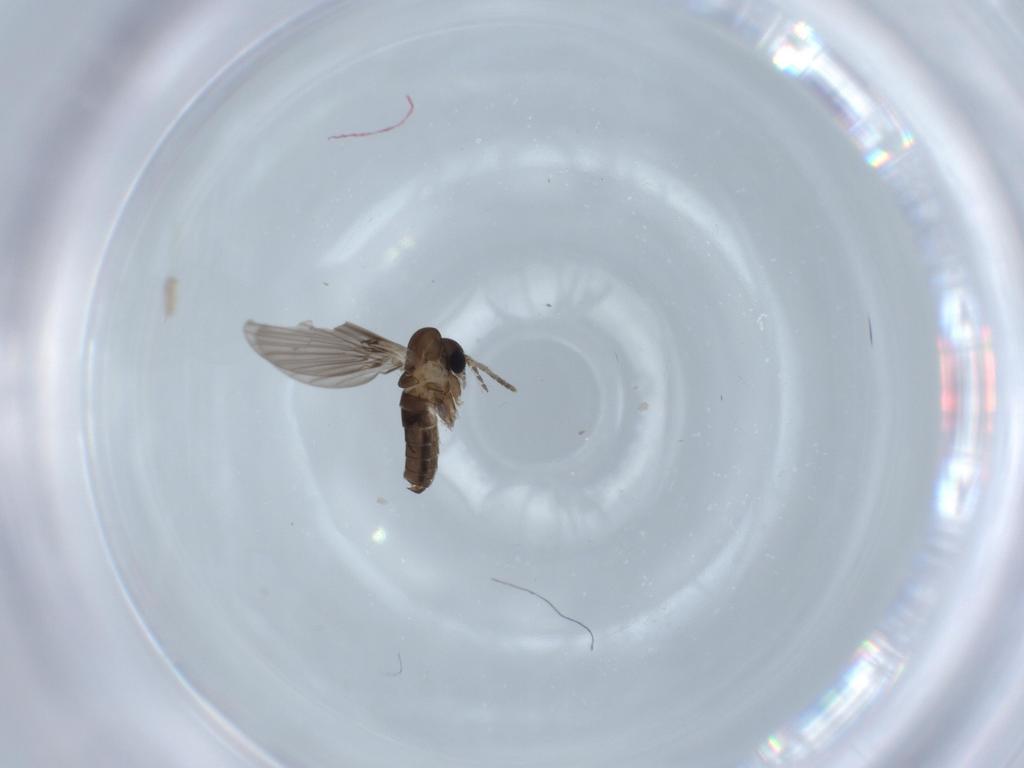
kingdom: Animalia
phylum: Arthropoda
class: Insecta
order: Diptera
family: Psychodidae
